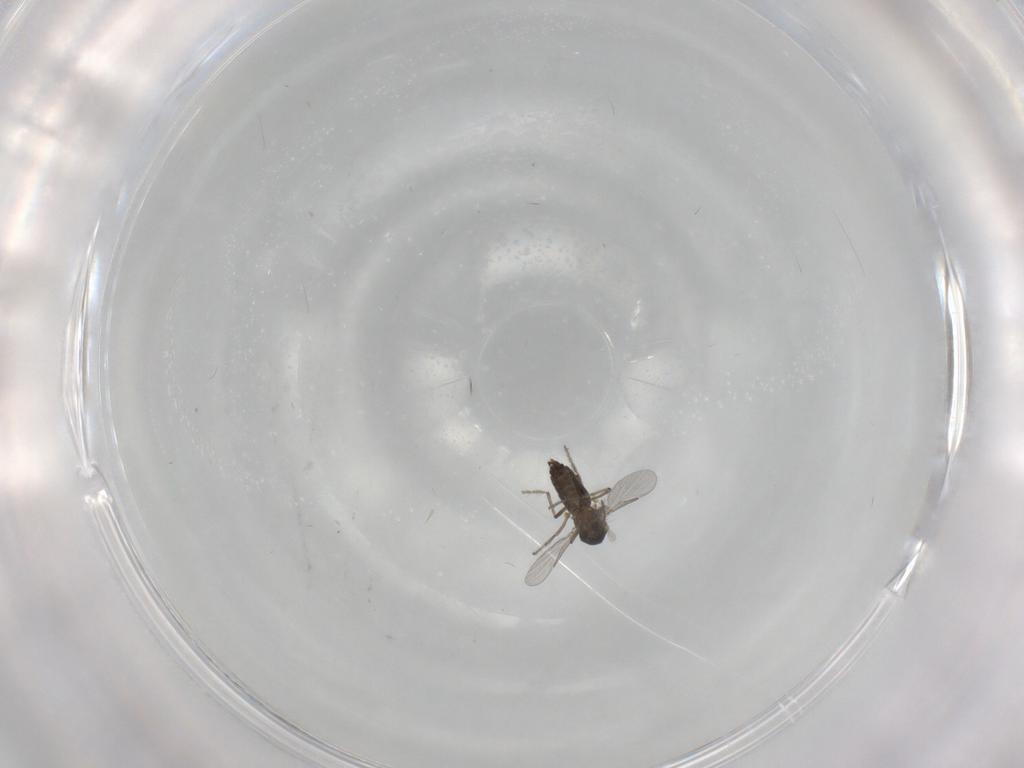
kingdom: Animalia
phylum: Arthropoda
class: Insecta
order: Diptera
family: Ceratopogonidae
